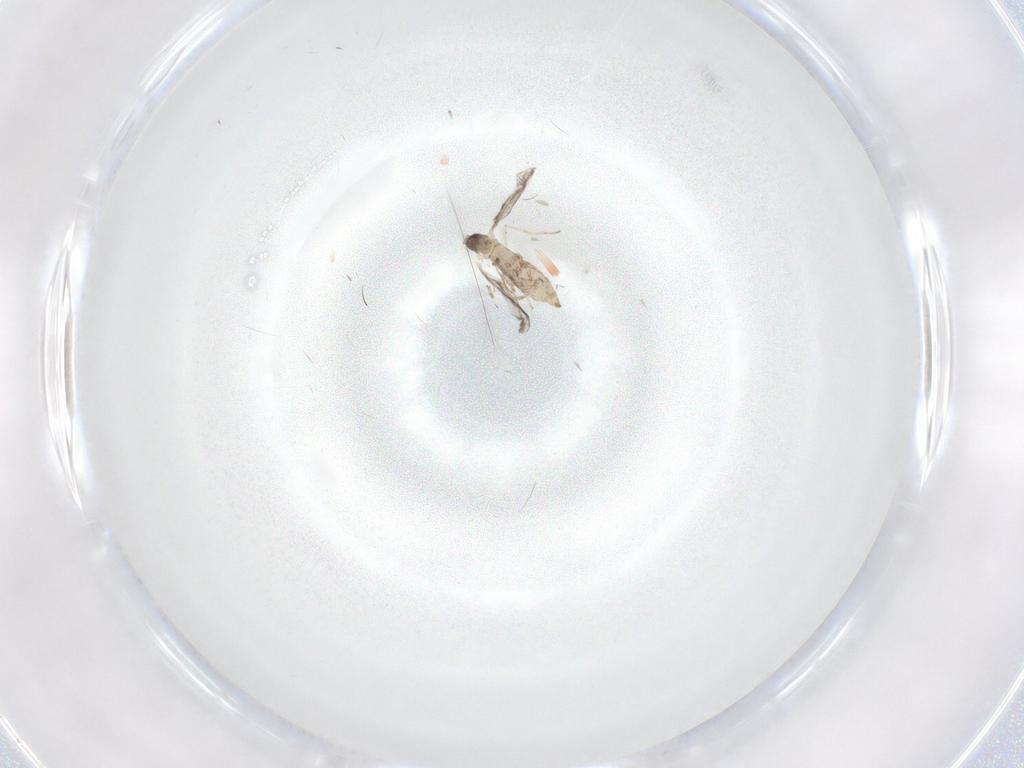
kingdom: Animalia
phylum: Arthropoda
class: Insecta
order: Diptera
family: Cecidomyiidae
